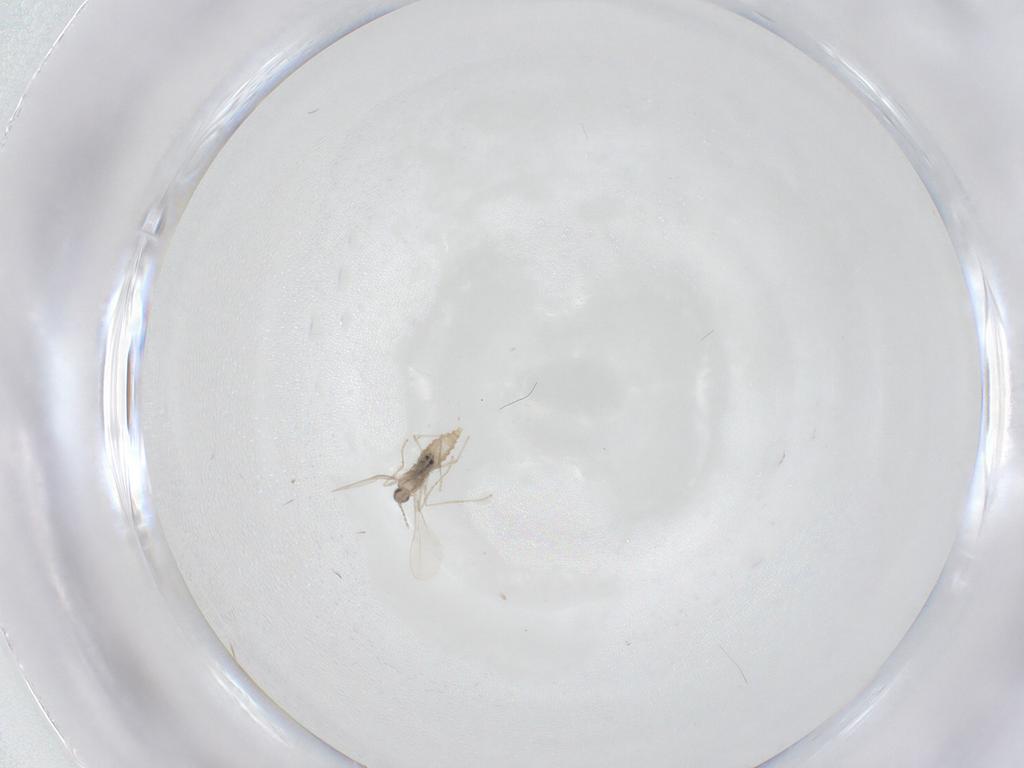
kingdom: Animalia
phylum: Arthropoda
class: Insecta
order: Diptera
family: Cecidomyiidae
